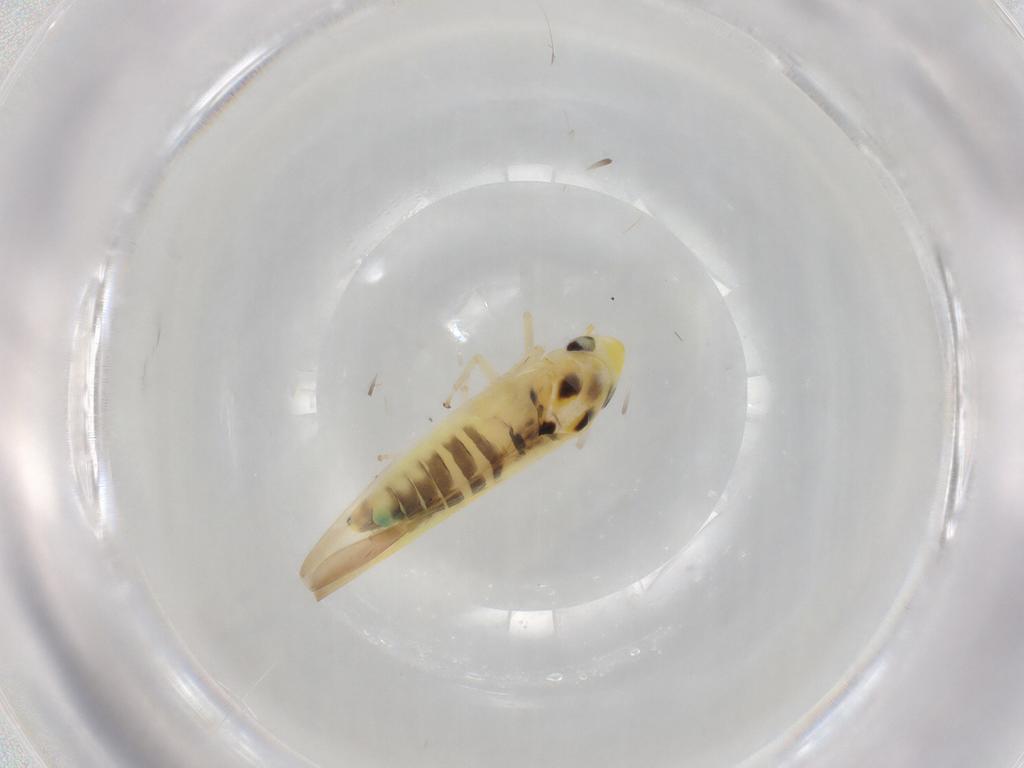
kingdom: Animalia
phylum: Arthropoda
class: Insecta
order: Hemiptera
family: Cicadellidae
